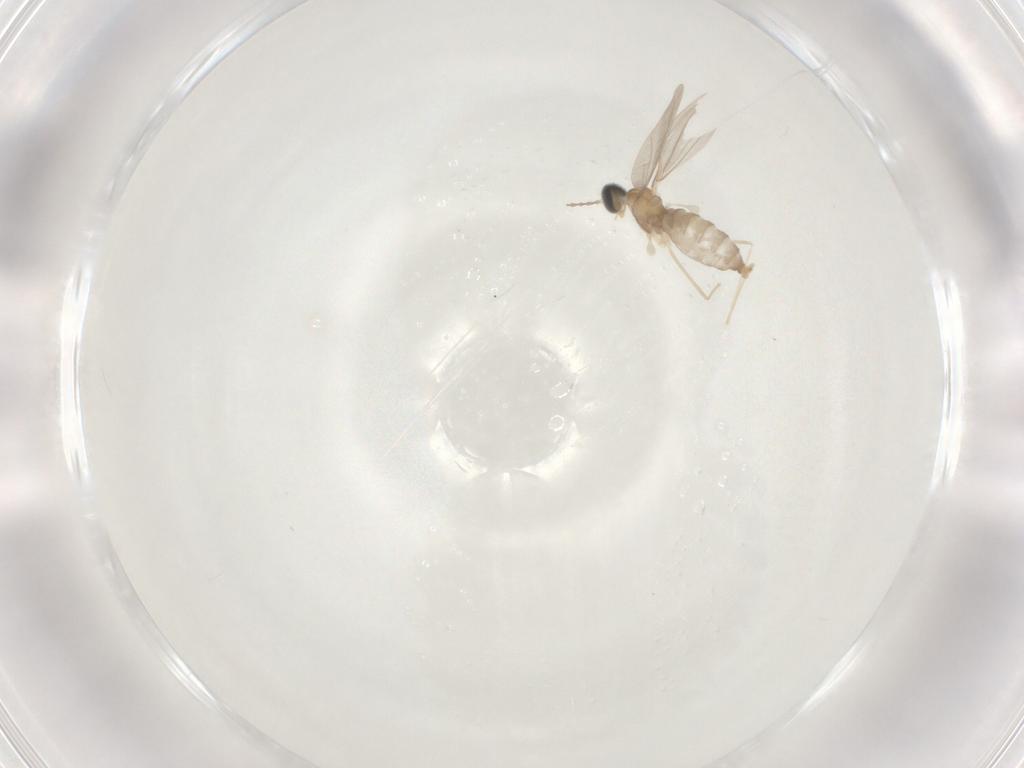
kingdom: Animalia
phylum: Arthropoda
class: Insecta
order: Diptera
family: Cecidomyiidae
